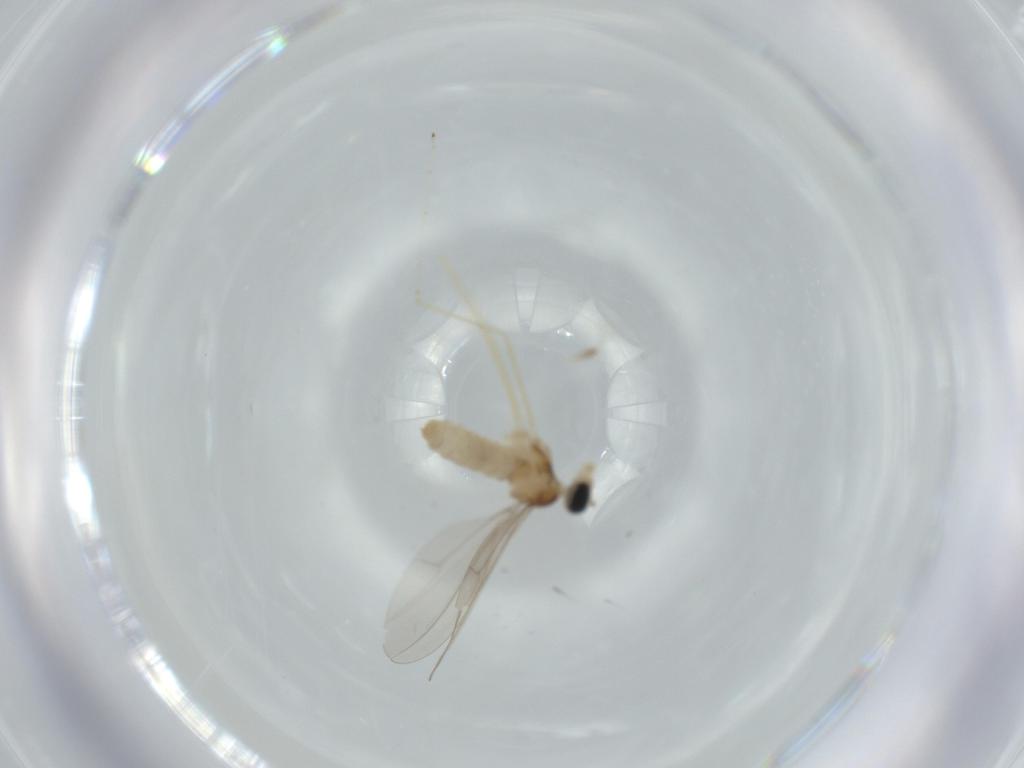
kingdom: Animalia
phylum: Arthropoda
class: Insecta
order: Diptera
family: Cecidomyiidae
